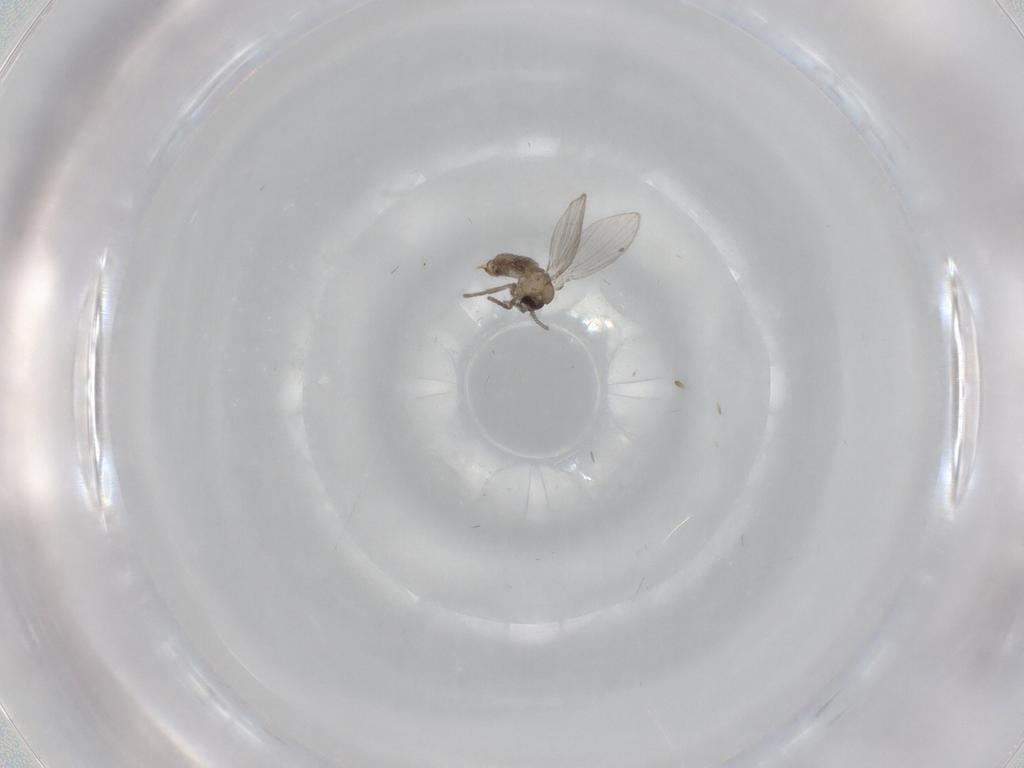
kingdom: Animalia
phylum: Arthropoda
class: Insecta
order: Diptera
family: Psychodidae
